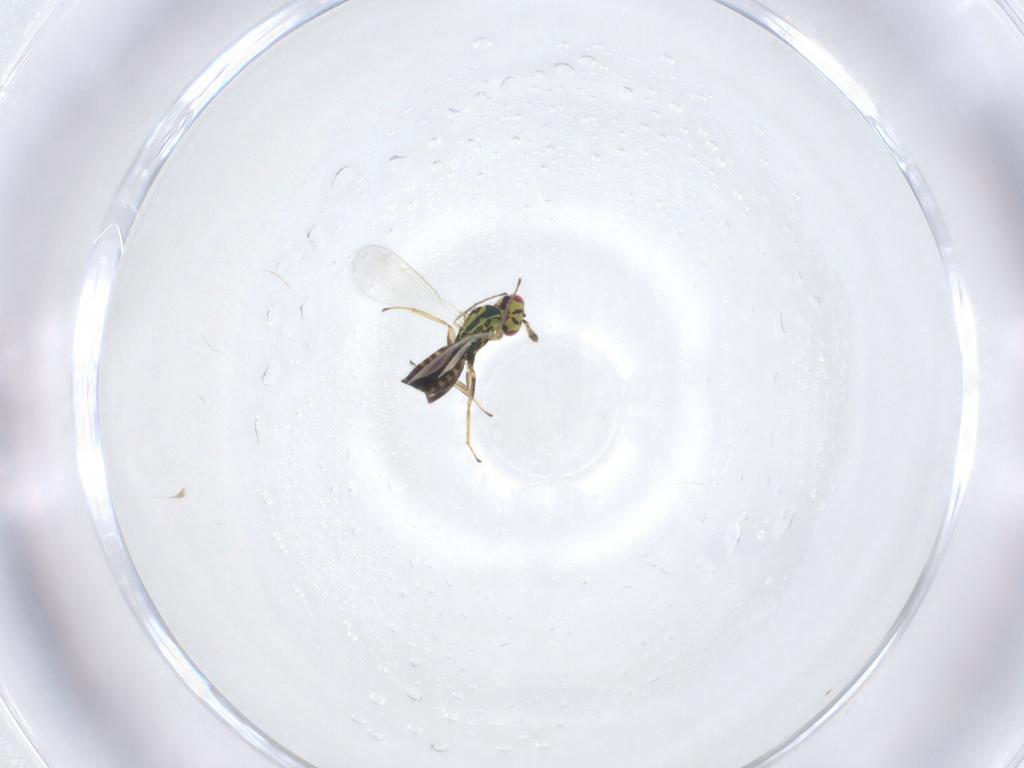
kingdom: Animalia
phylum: Arthropoda
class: Insecta
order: Hymenoptera
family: Eulophidae
